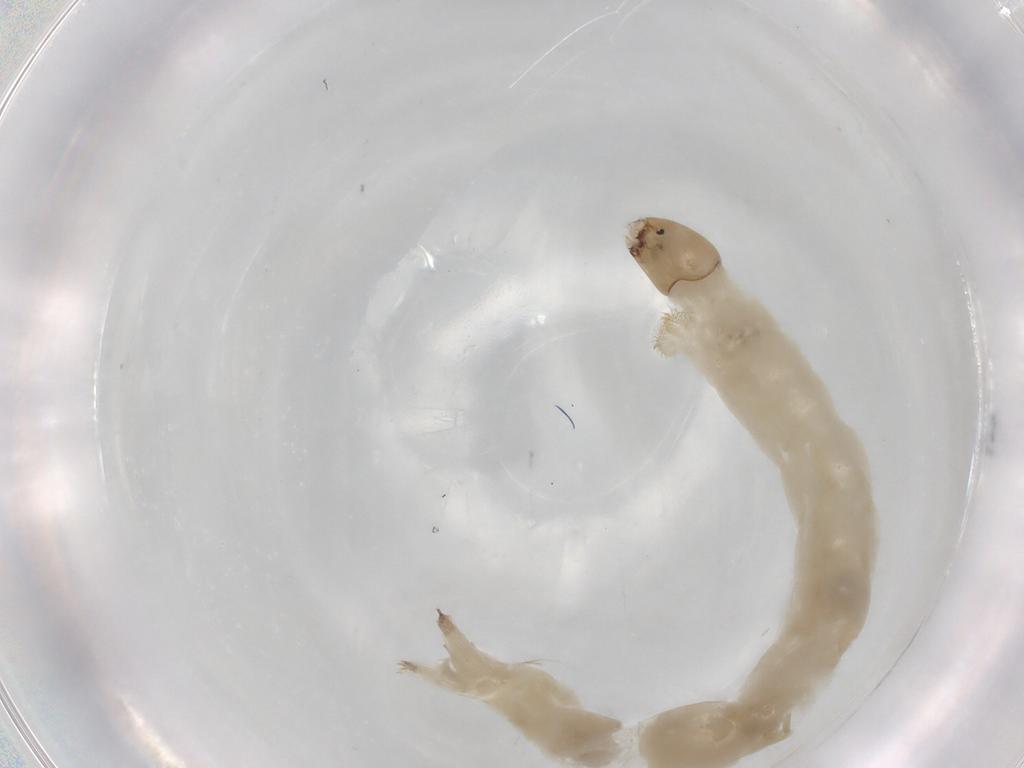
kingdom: Animalia
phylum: Arthropoda
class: Insecta
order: Diptera
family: Chironomidae
